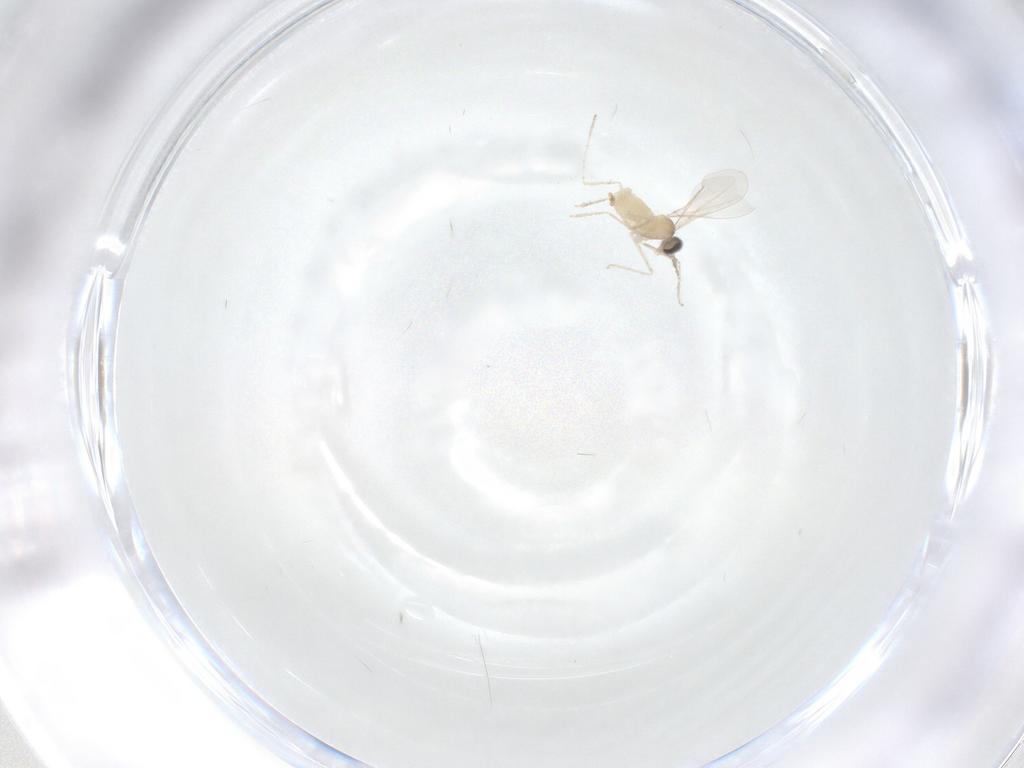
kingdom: Animalia
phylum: Arthropoda
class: Insecta
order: Diptera
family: Cecidomyiidae
